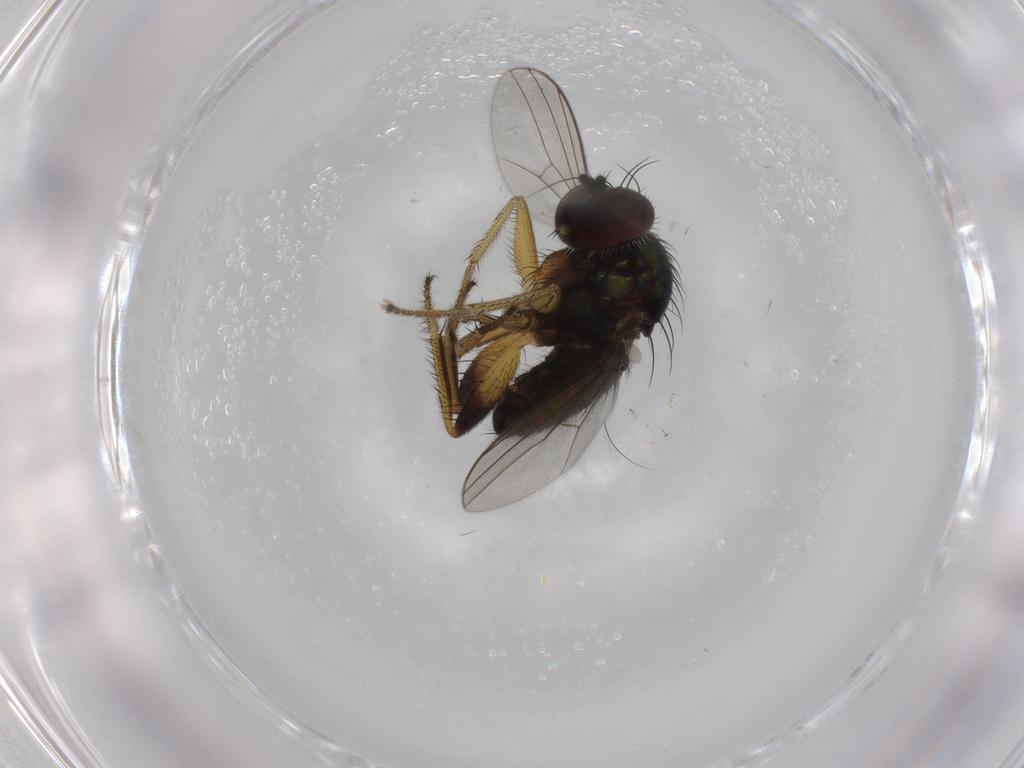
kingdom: Animalia
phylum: Arthropoda
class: Insecta
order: Diptera
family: Dolichopodidae
